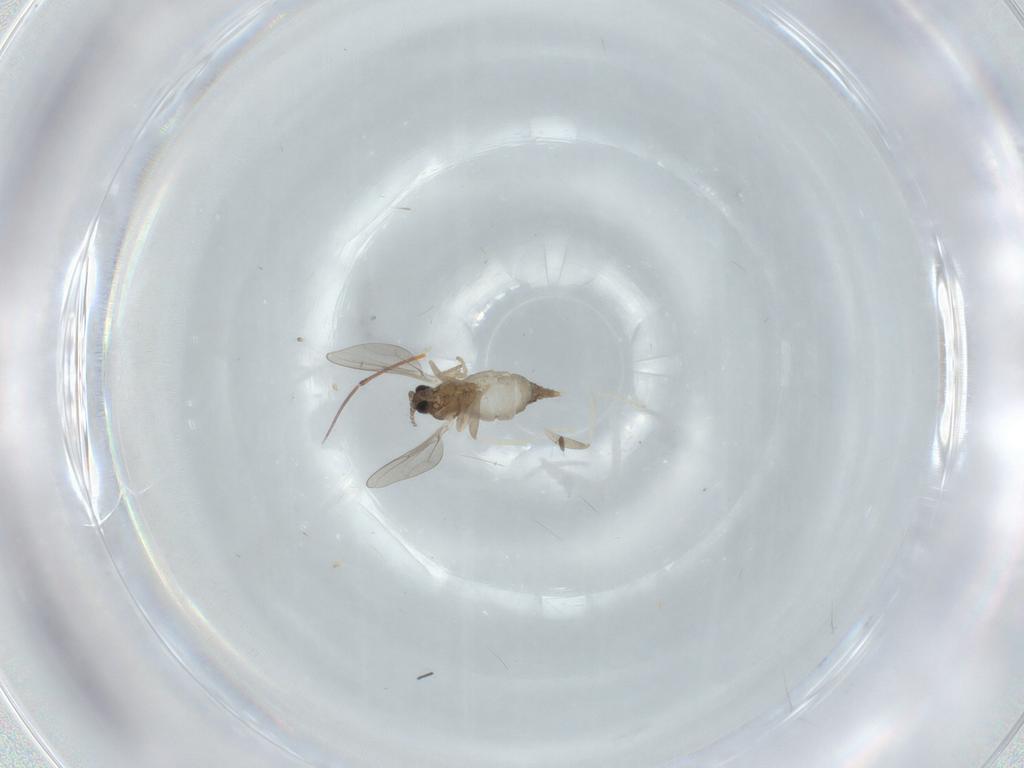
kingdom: Animalia
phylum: Arthropoda
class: Insecta
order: Diptera
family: Cecidomyiidae
